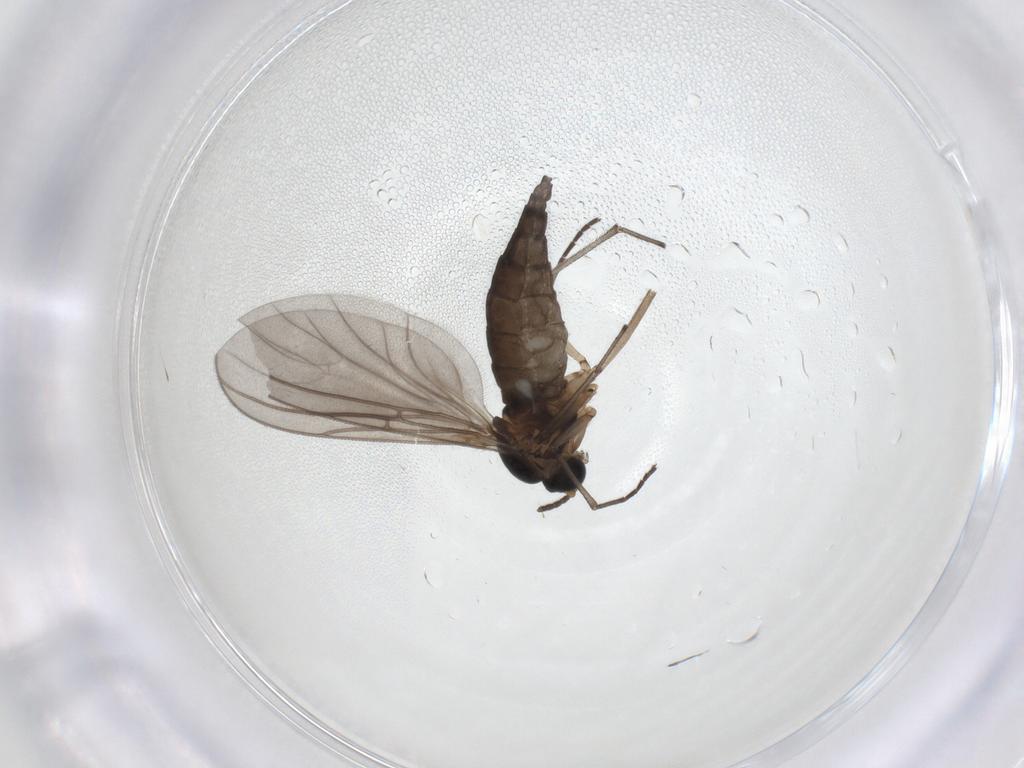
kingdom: Animalia
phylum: Arthropoda
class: Insecta
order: Diptera
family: Sciaridae
